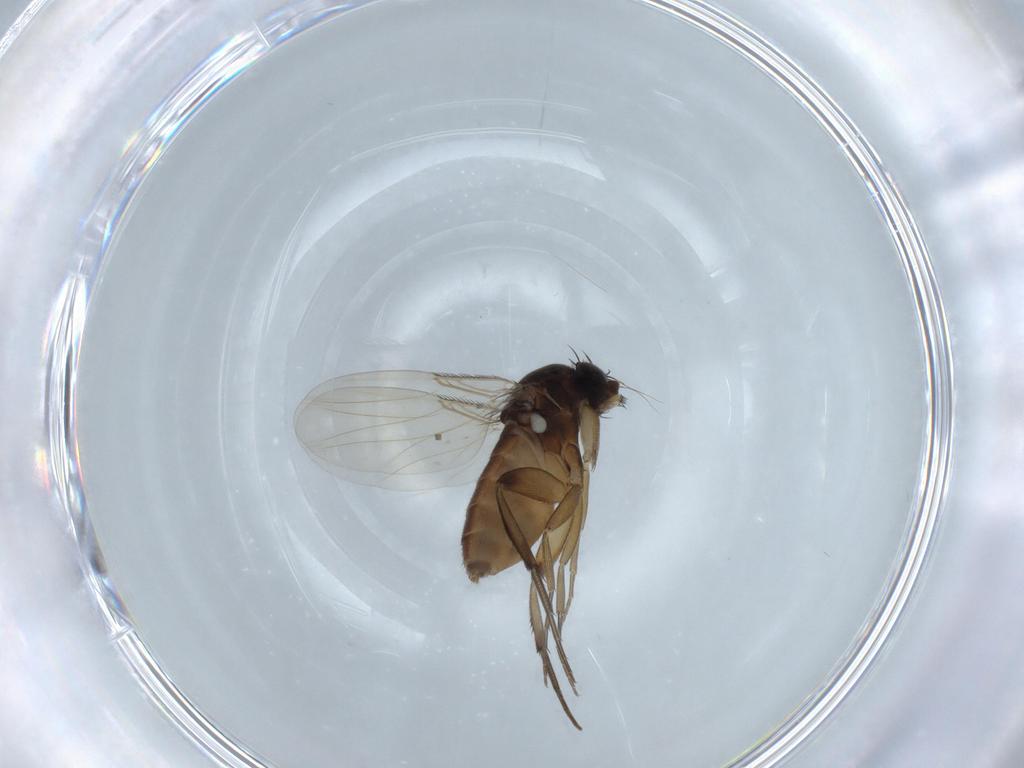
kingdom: Animalia
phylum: Arthropoda
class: Insecta
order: Diptera
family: Phoridae
